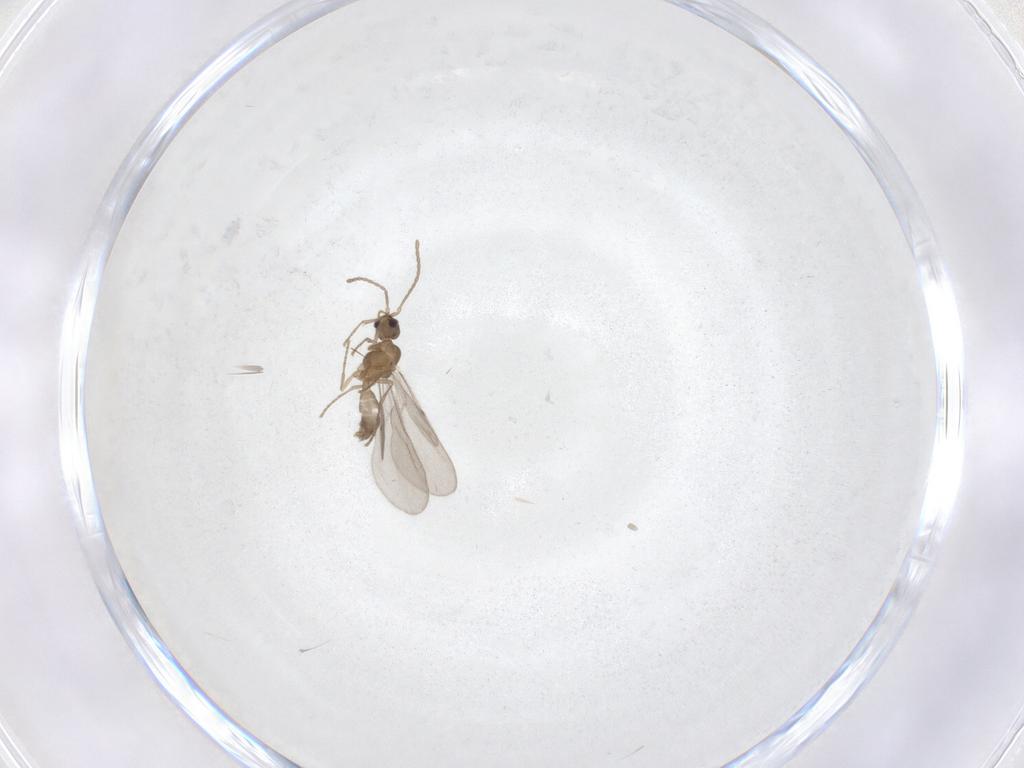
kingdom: Animalia
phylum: Arthropoda
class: Insecta
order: Hymenoptera
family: Formicidae
